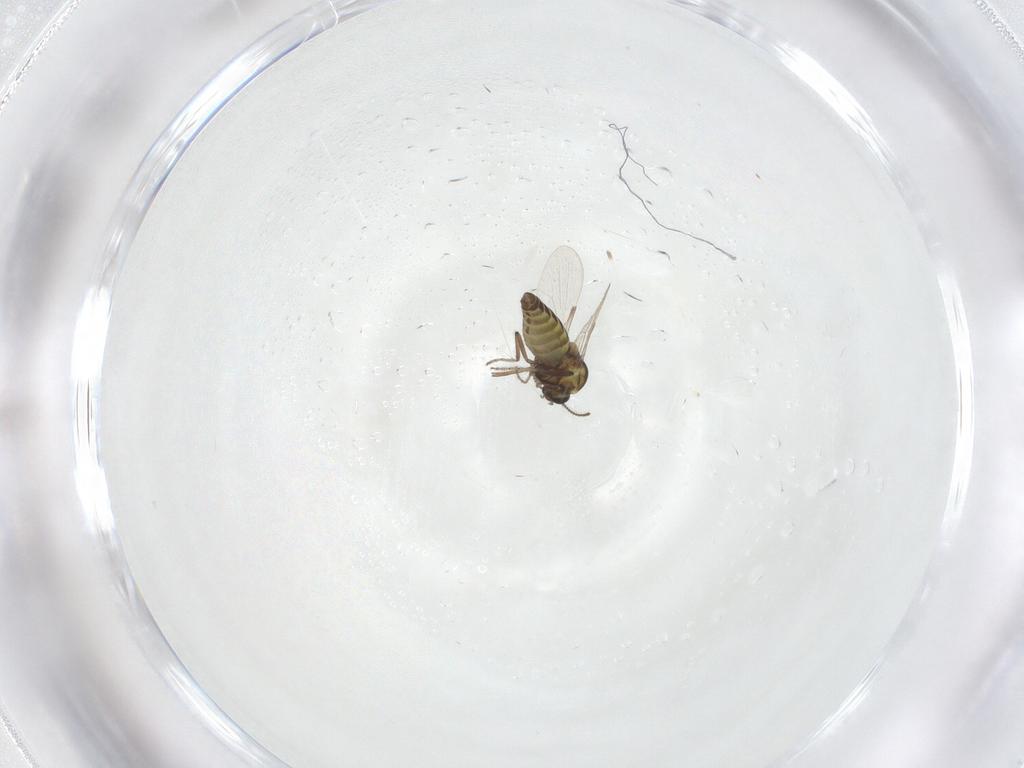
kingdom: Animalia
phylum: Arthropoda
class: Insecta
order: Diptera
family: Ceratopogonidae
